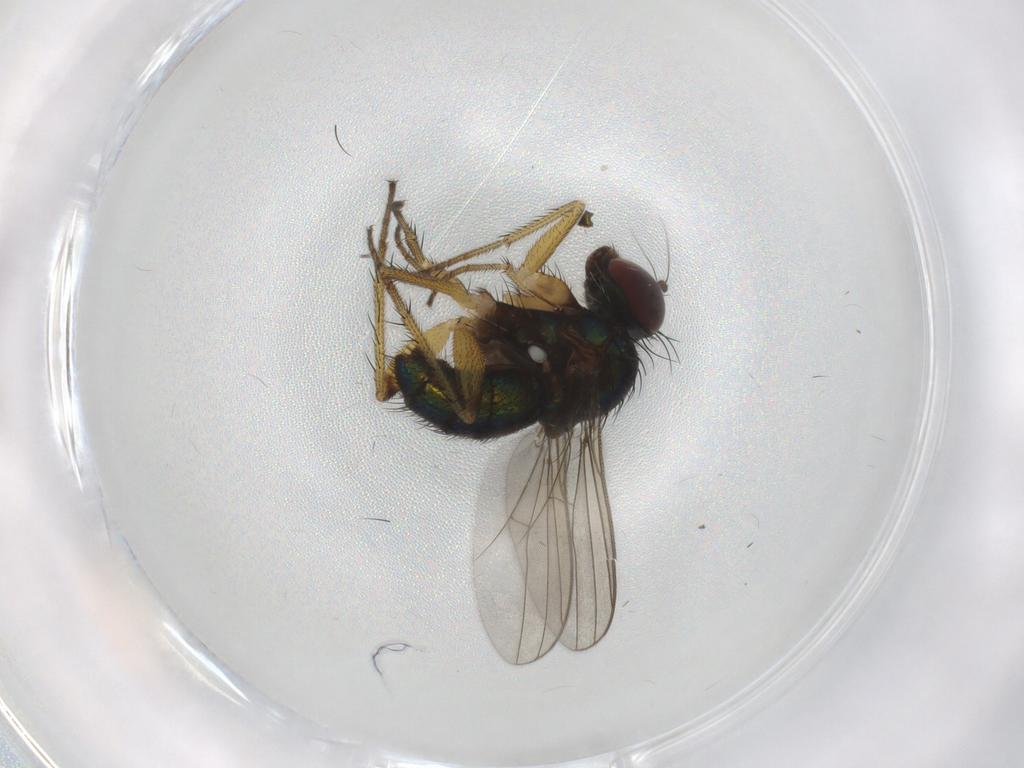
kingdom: Animalia
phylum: Arthropoda
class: Insecta
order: Diptera
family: Dolichopodidae
